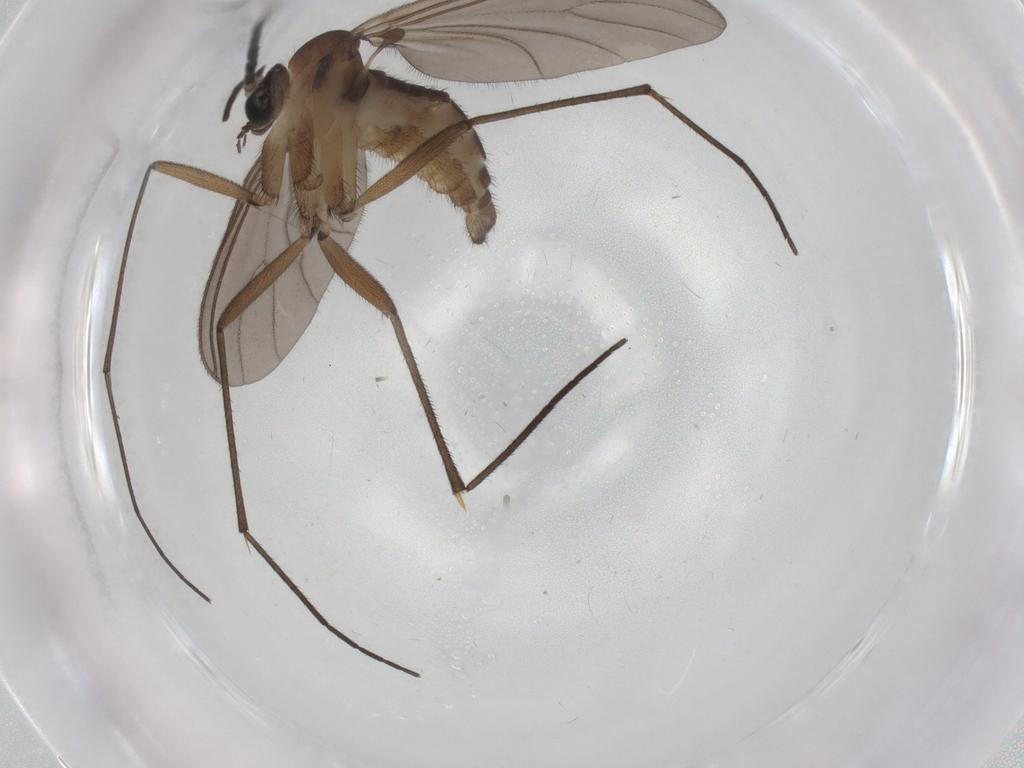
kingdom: Animalia
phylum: Arthropoda
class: Insecta
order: Diptera
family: Sciaridae
